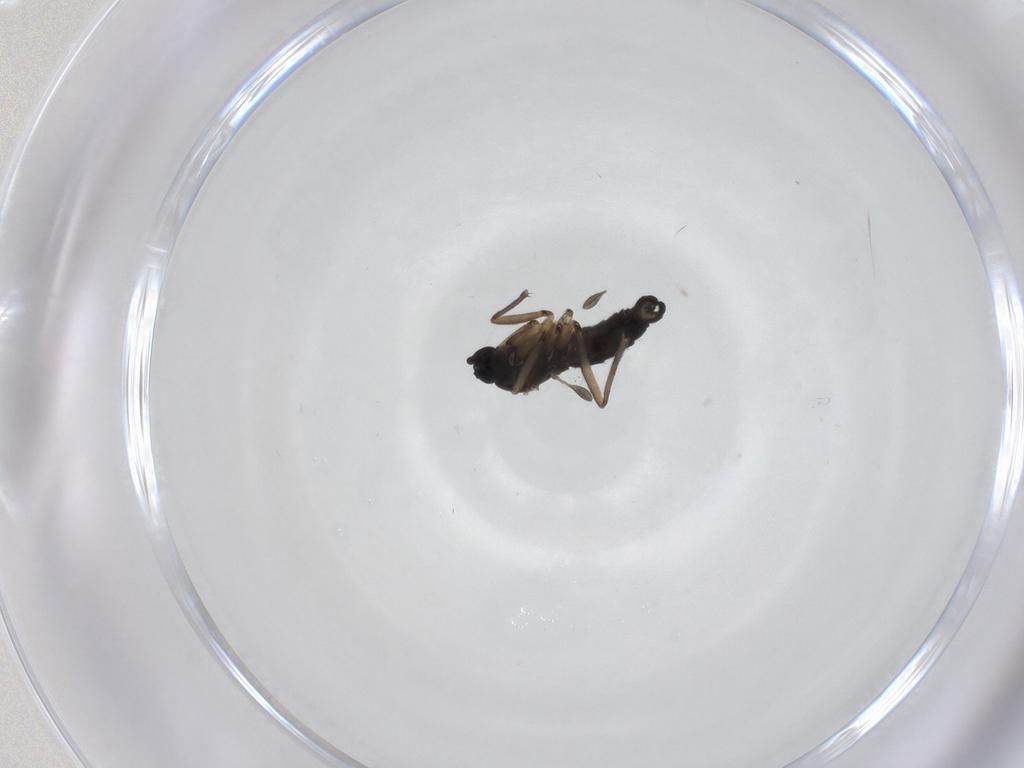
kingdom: Animalia
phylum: Arthropoda
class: Insecta
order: Diptera
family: Sciaridae
